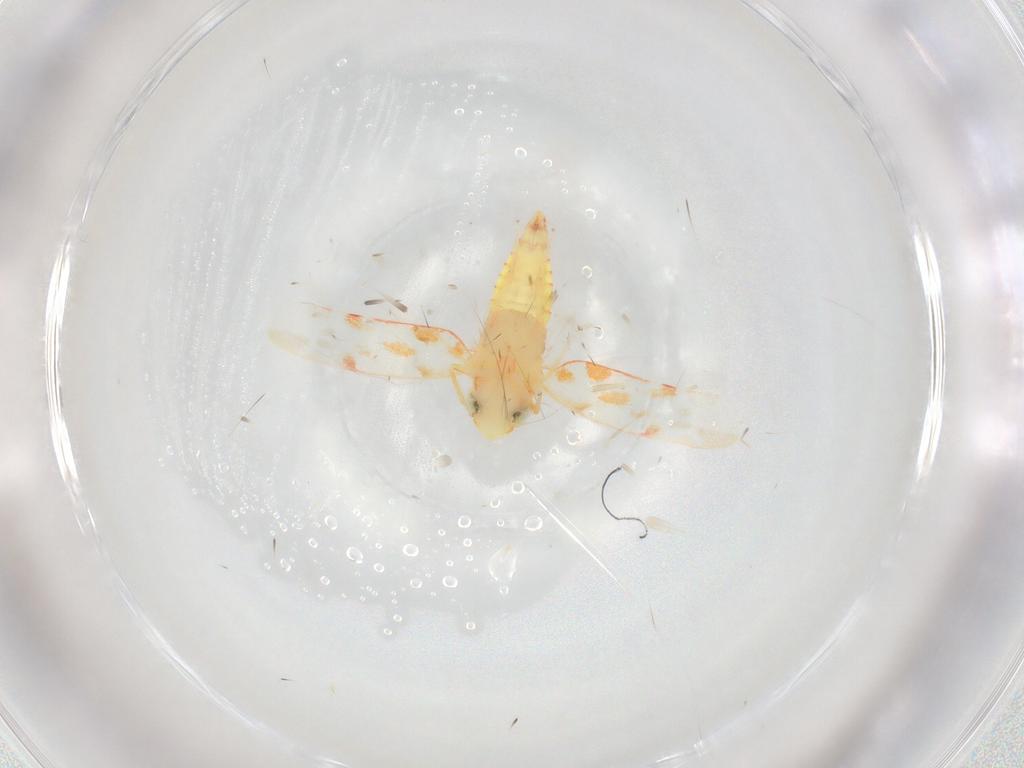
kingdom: Animalia
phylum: Arthropoda
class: Insecta
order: Hemiptera
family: Cicadellidae
